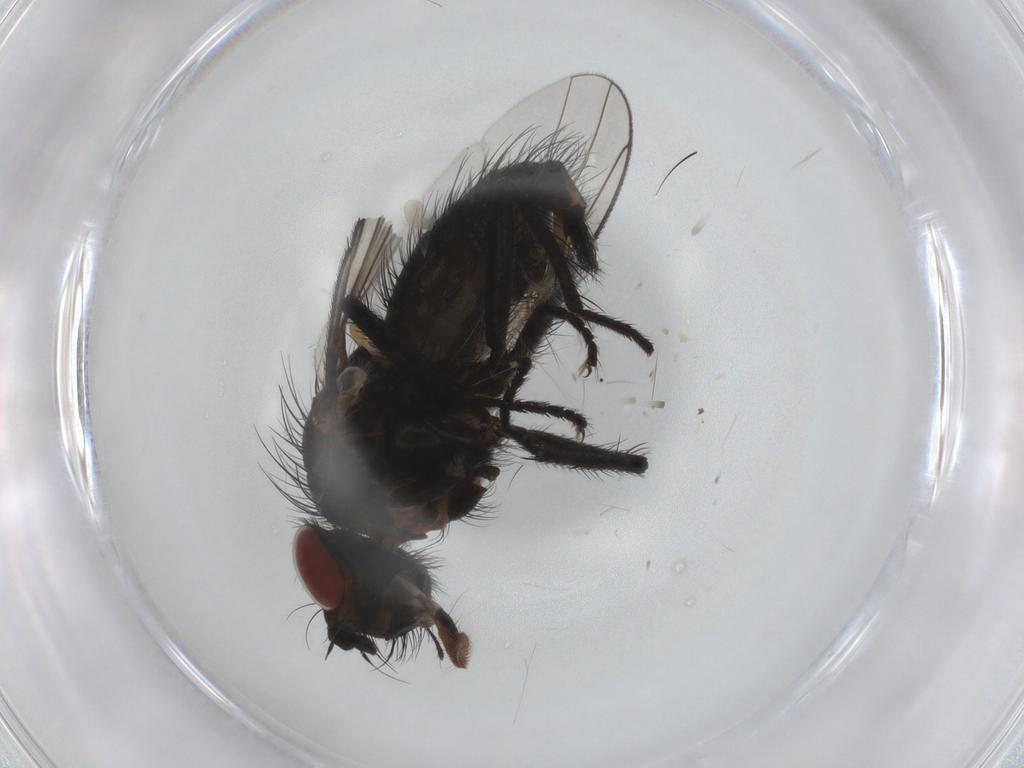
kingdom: Animalia
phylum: Arthropoda
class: Insecta
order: Diptera
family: Anthomyiidae
